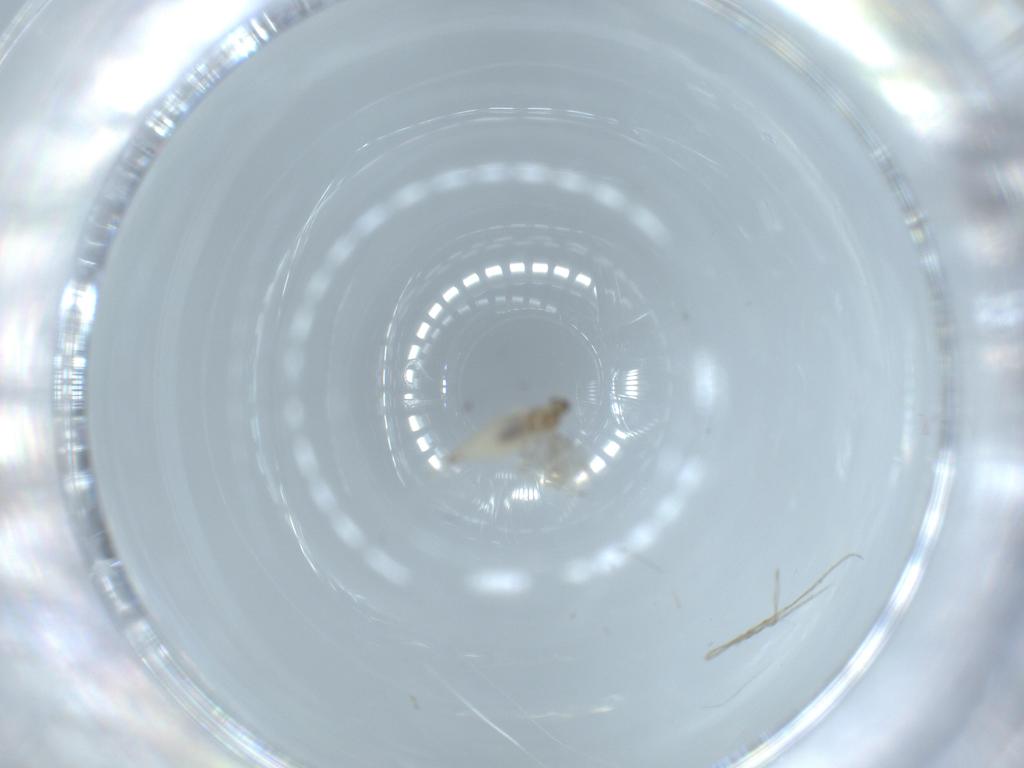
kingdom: Animalia
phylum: Arthropoda
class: Insecta
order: Diptera
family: Cecidomyiidae
